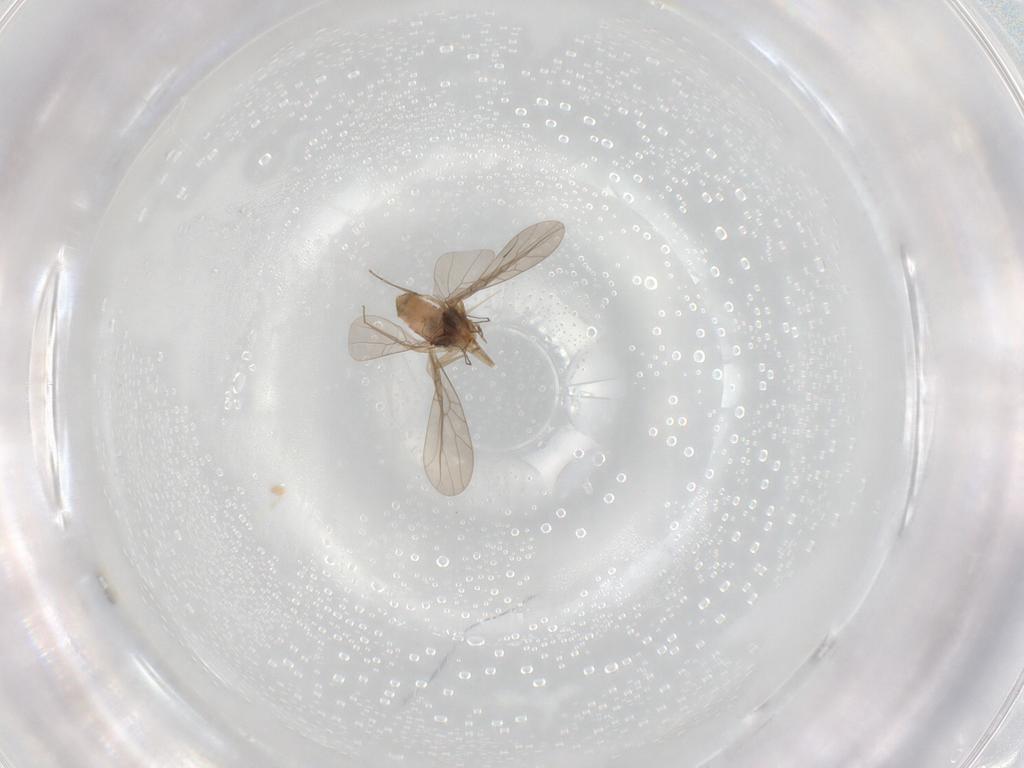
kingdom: Animalia
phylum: Arthropoda
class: Insecta
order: Psocodea
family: Lepidopsocidae
